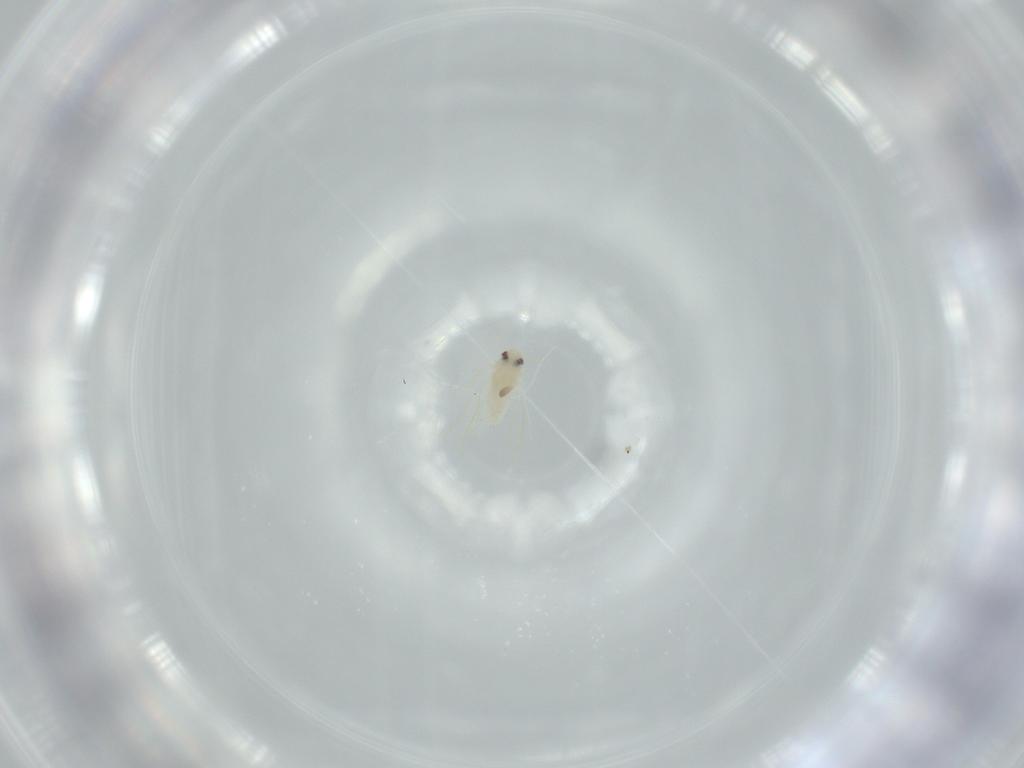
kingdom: Animalia
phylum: Arthropoda
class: Insecta
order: Hemiptera
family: Aleyrodidae
